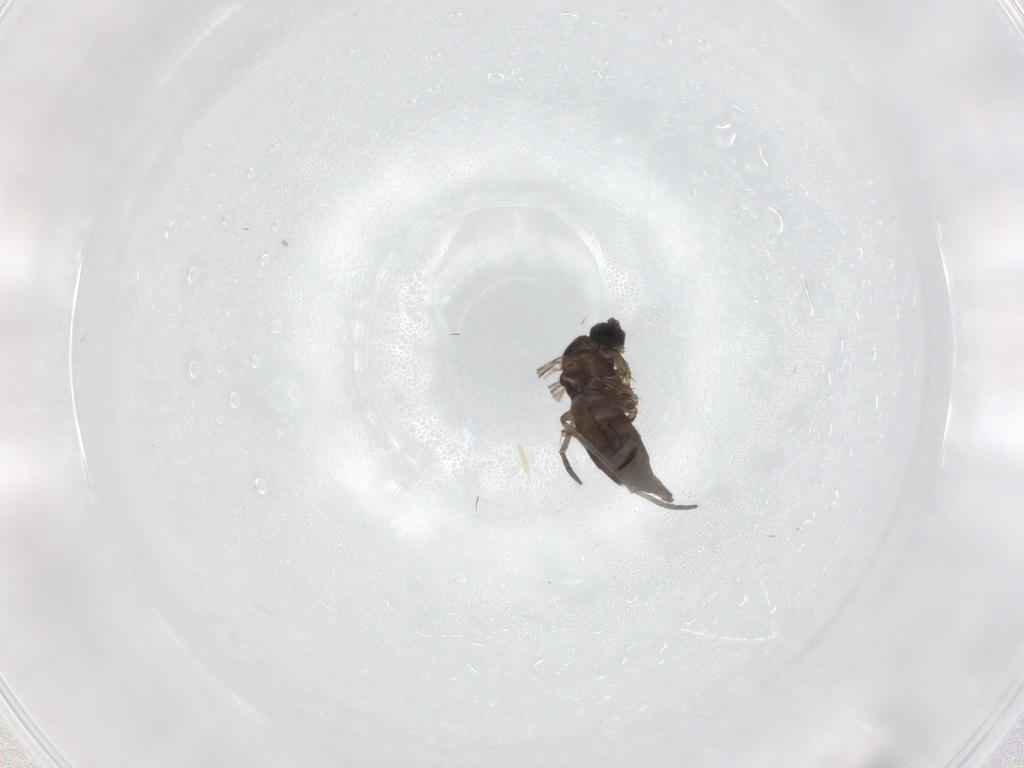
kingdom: Animalia
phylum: Arthropoda
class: Insecta
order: Diptera
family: Sciaridae
